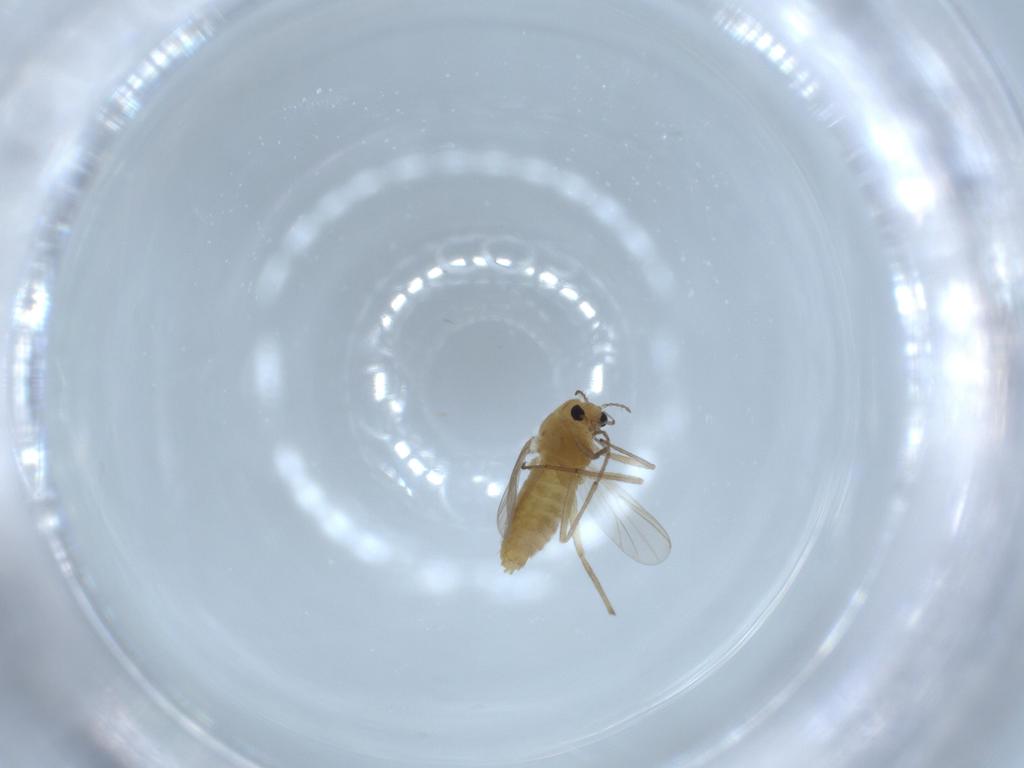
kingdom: Animalia
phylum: Arthropoda
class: Insecta
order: Diptera
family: Chironomidae
